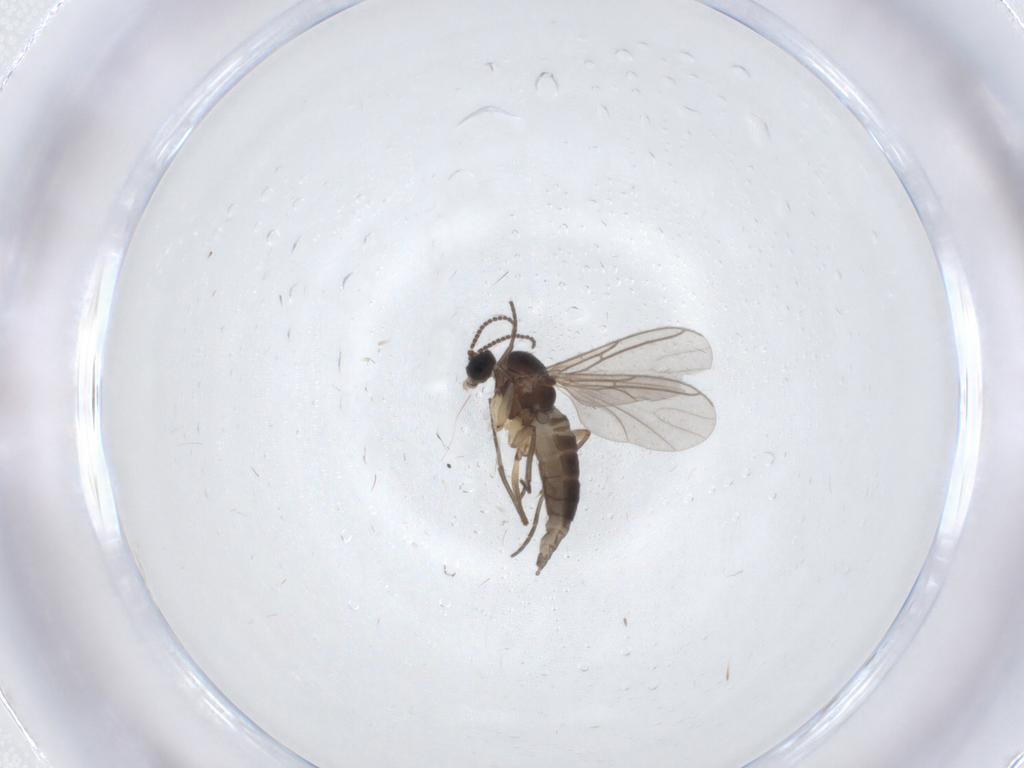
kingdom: Animalia
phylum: Arthropoda
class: Insecta
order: Diptera
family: Sciaridae
